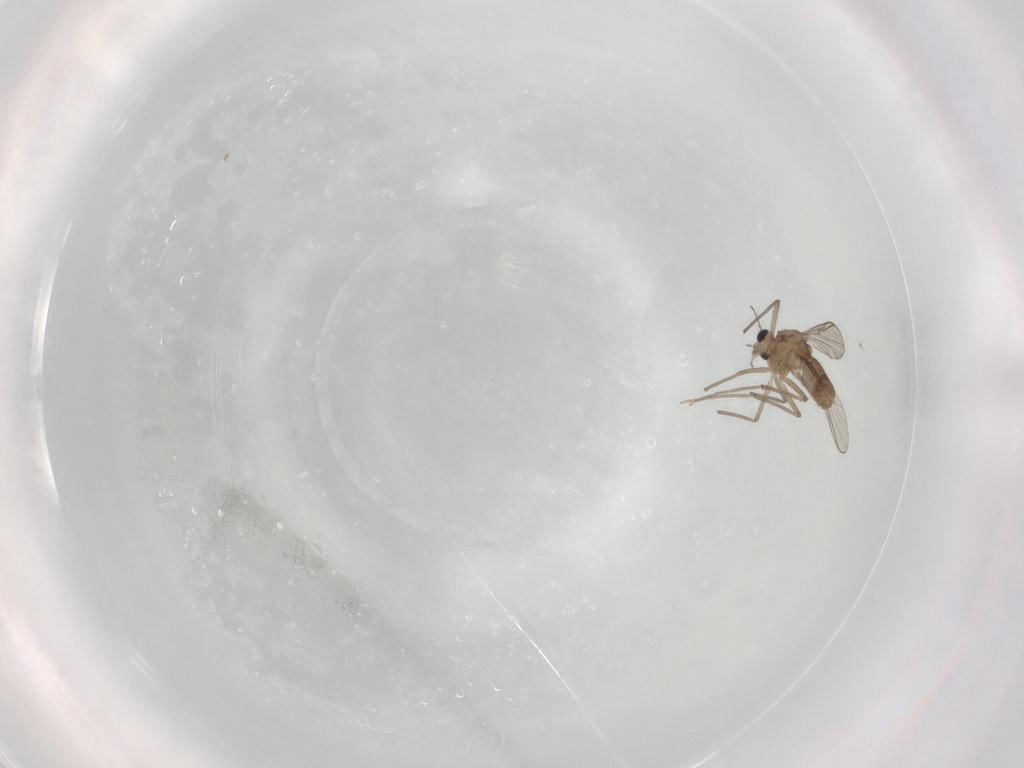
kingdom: Animalia
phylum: Arthropoda
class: Insecta
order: Diptera
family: Chironomidae
